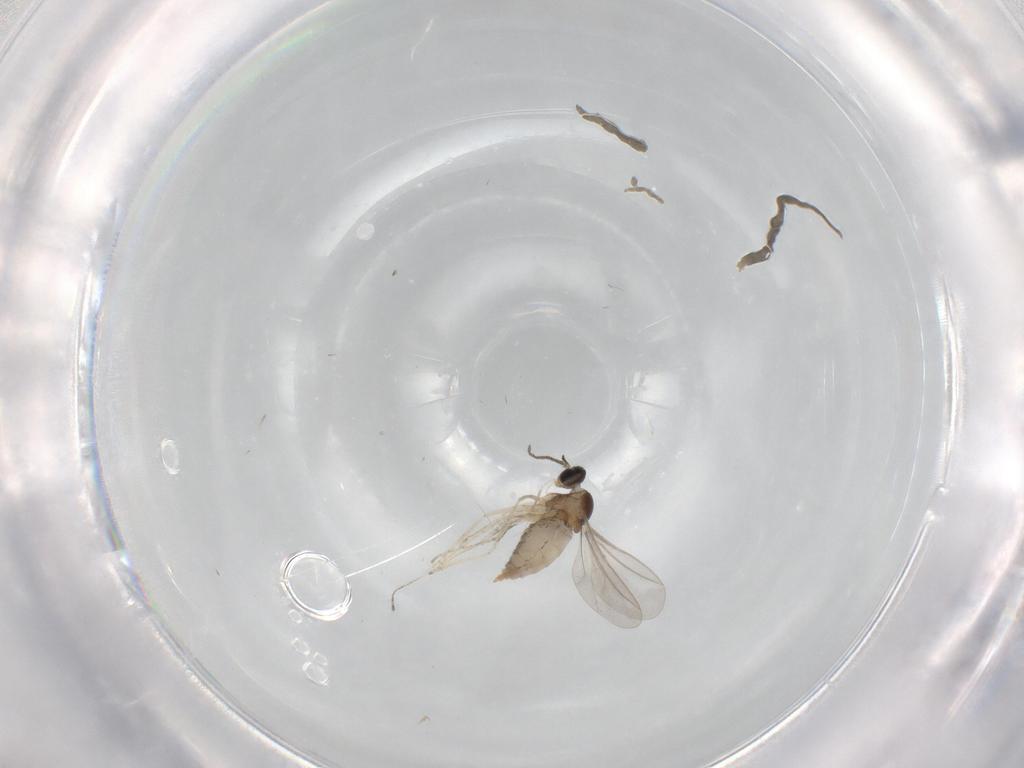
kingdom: Animalia
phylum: Arthropoda
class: Insecta
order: Diptera
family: Cecidomyiidae
